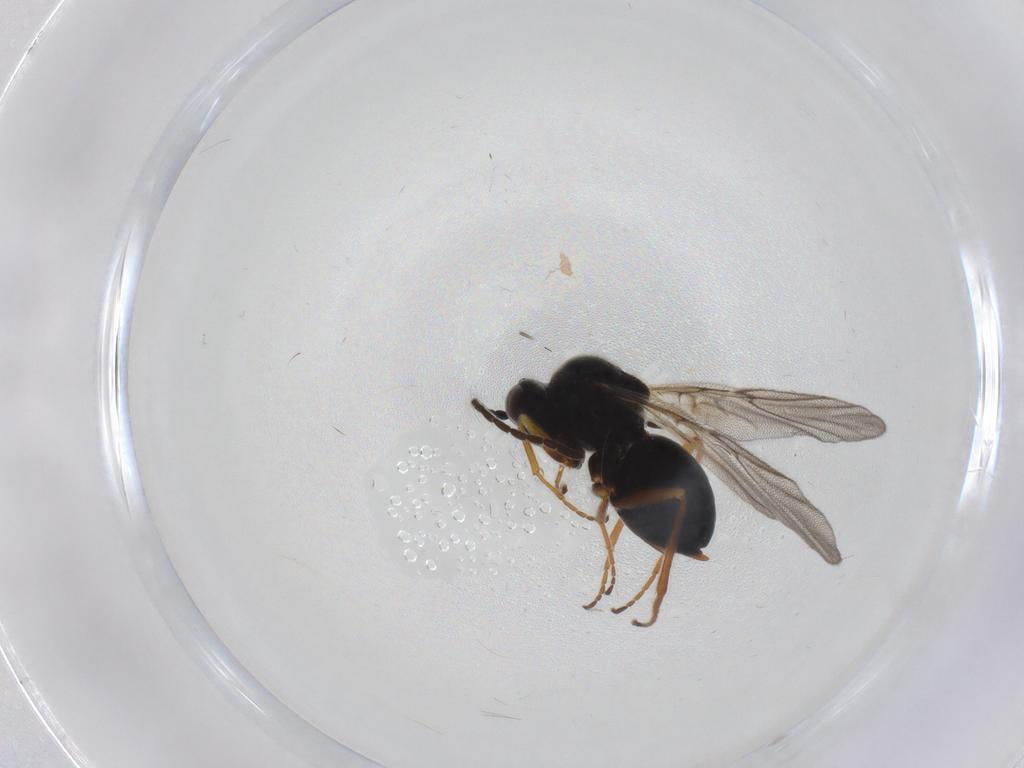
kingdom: Animalia
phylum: Arthropoda
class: Insecta
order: Hymenoptera
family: Cynipidae
